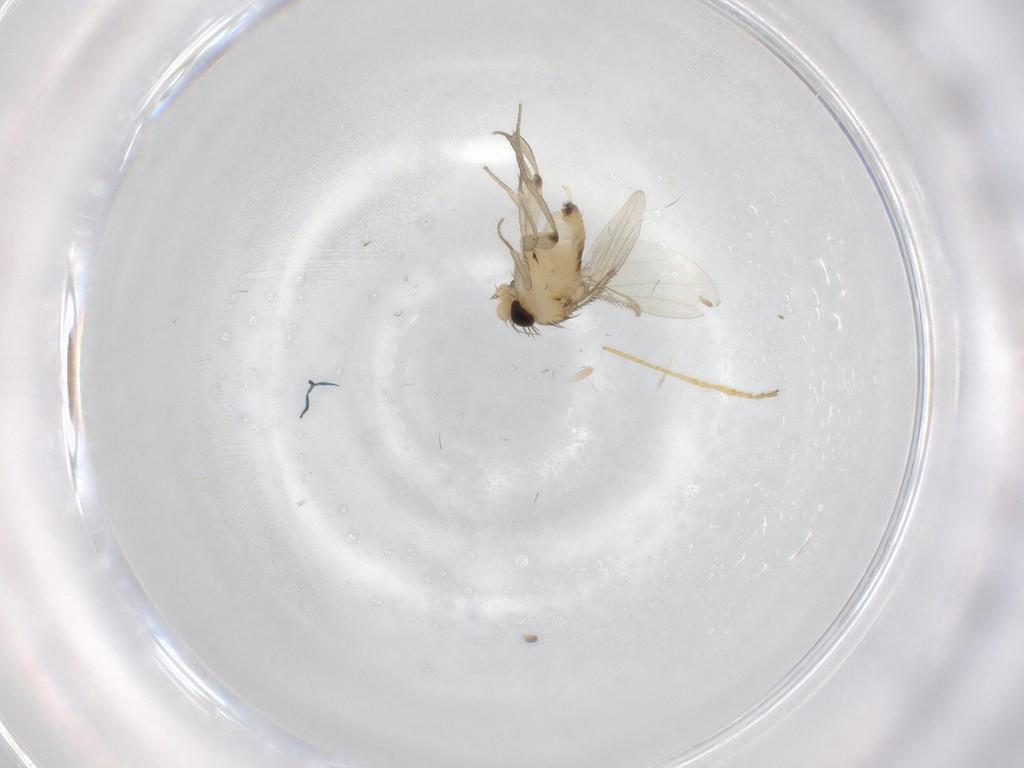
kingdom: Animalia
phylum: Arthropoda
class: Insecta
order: Diptera
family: Phoridae
